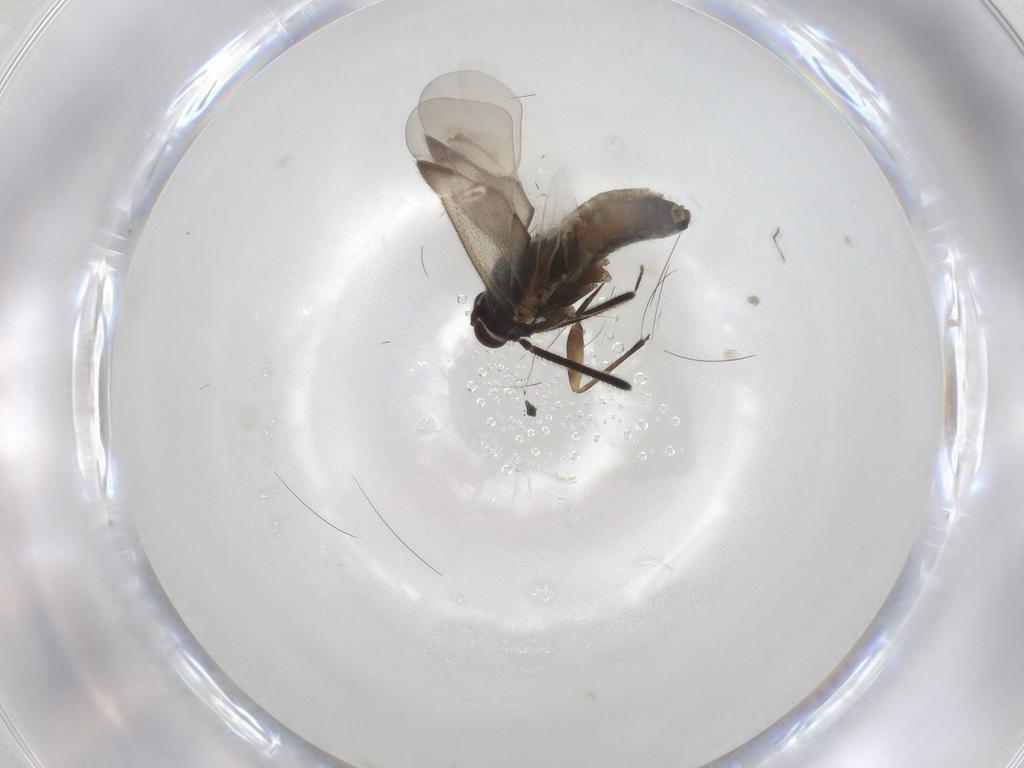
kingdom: Animalia
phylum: Arthropoda
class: Insecta
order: Hemiptera
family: Miridae
